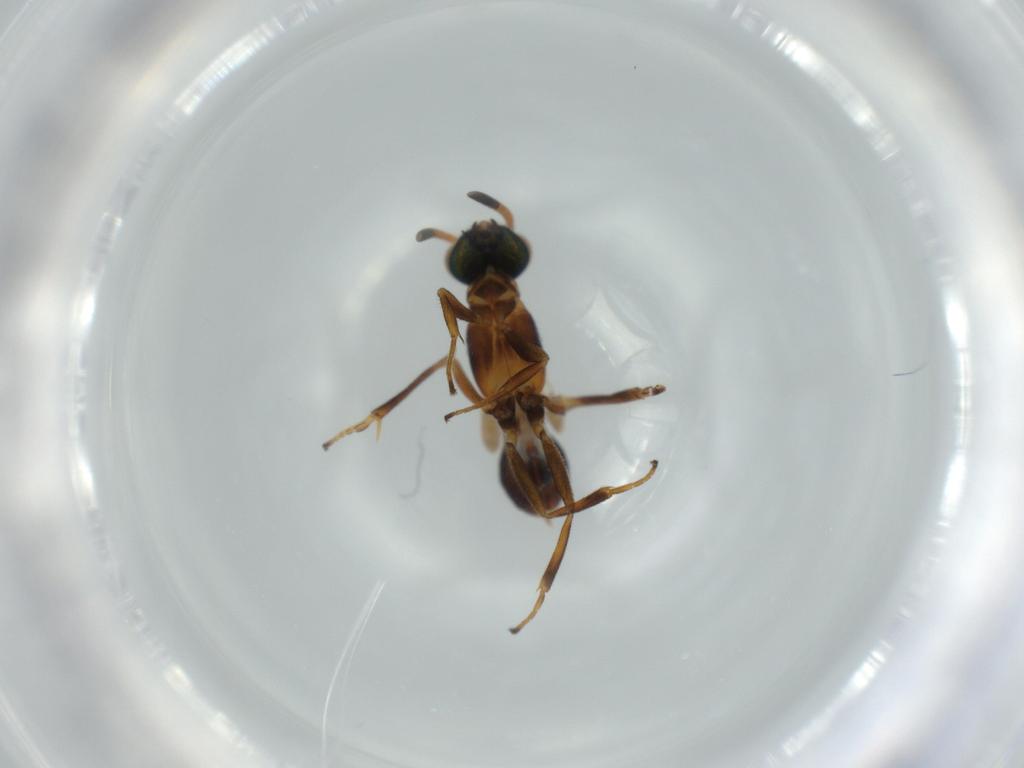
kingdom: Animalia
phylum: Arthropoda
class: Insecta
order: Hymenoptera
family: Eupelmidae
